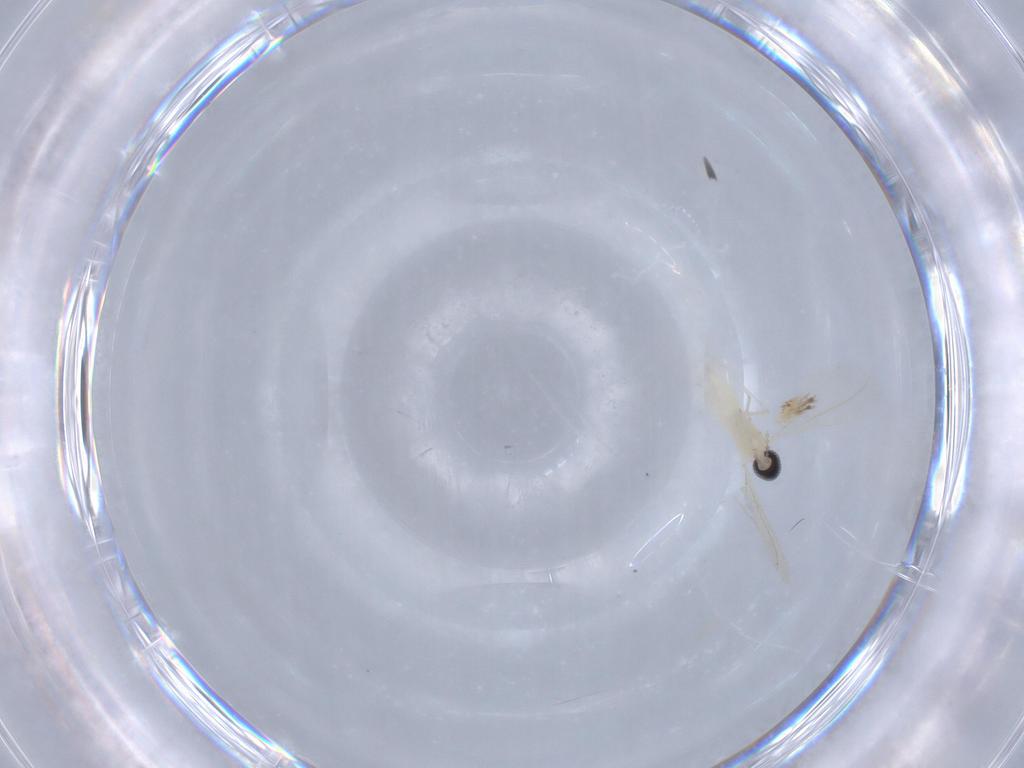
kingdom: Animalia
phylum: Arthropoda
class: Insecta
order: Diptera
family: Cecidomyiidae
